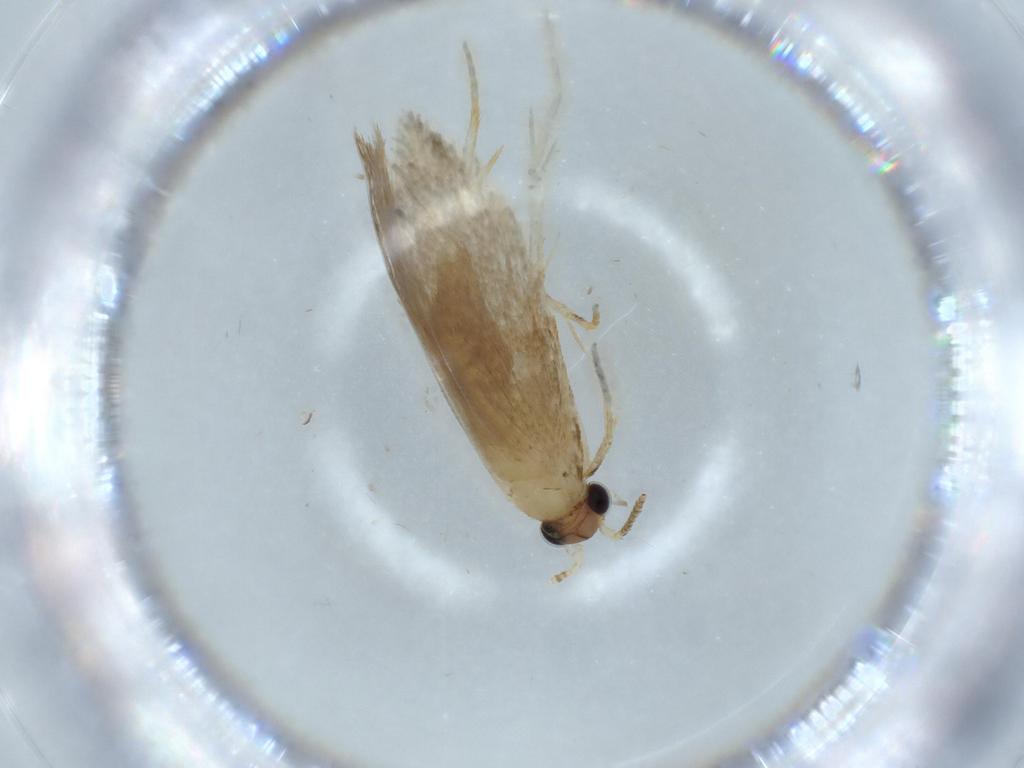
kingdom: Animalia
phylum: Arthropoda
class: Insecta
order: Lepidoptera
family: Tineidae
